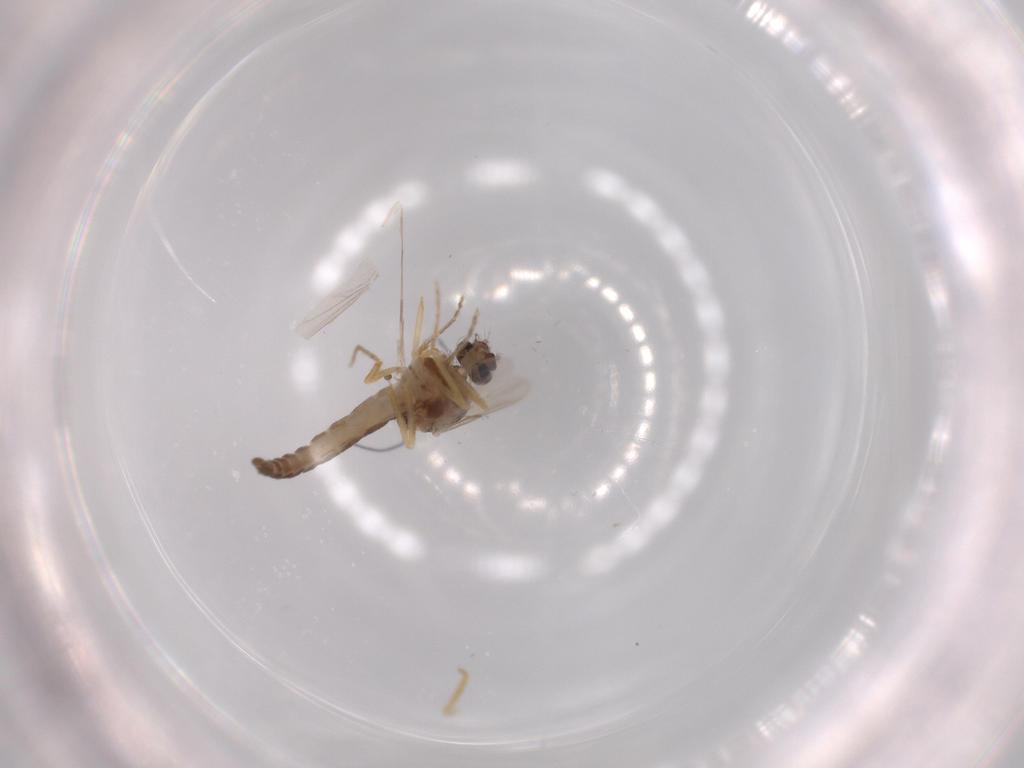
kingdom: Animalia
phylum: Arthropoda
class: Insecta
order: Diptera
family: Ceratopogonidae
